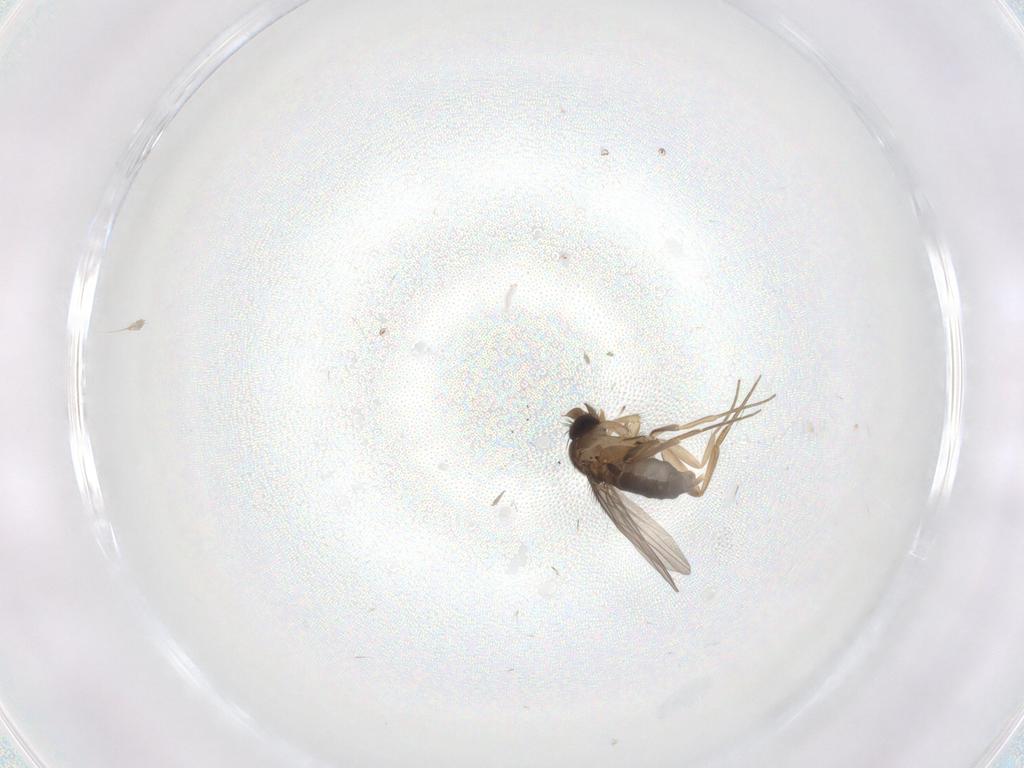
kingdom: Animalia
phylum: Arthropoda
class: Insecta
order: Diptera
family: Phoridae
